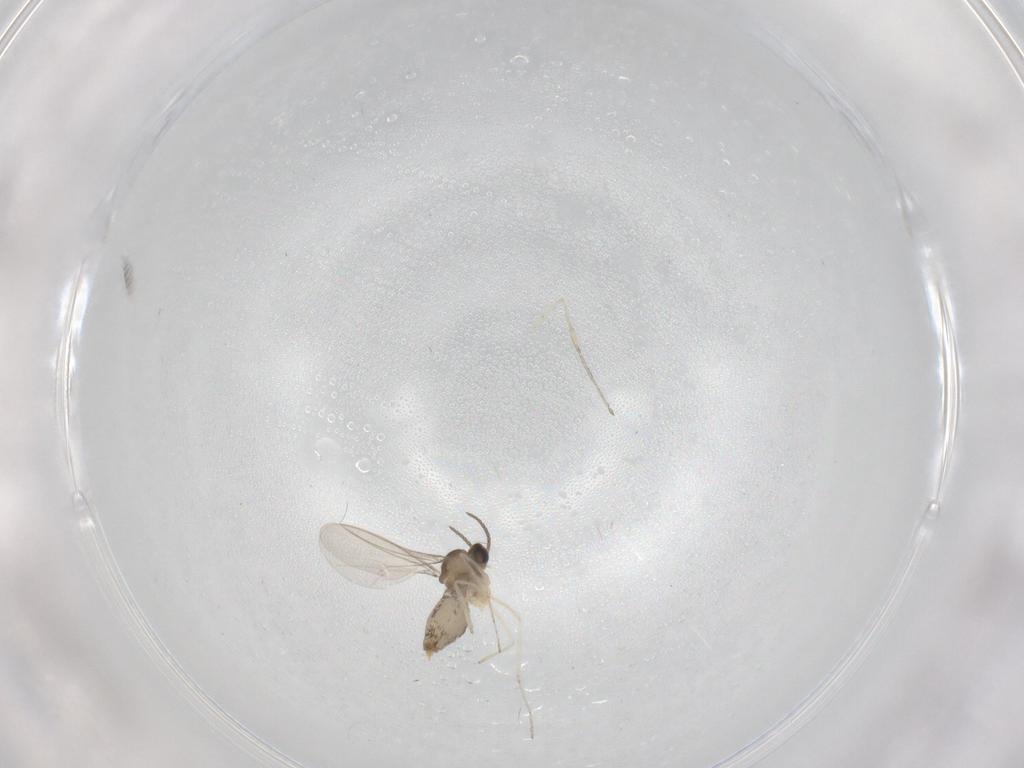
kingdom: Animalia
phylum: Arthropoda
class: Insecta
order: Diptera
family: Cecidomyiidae
